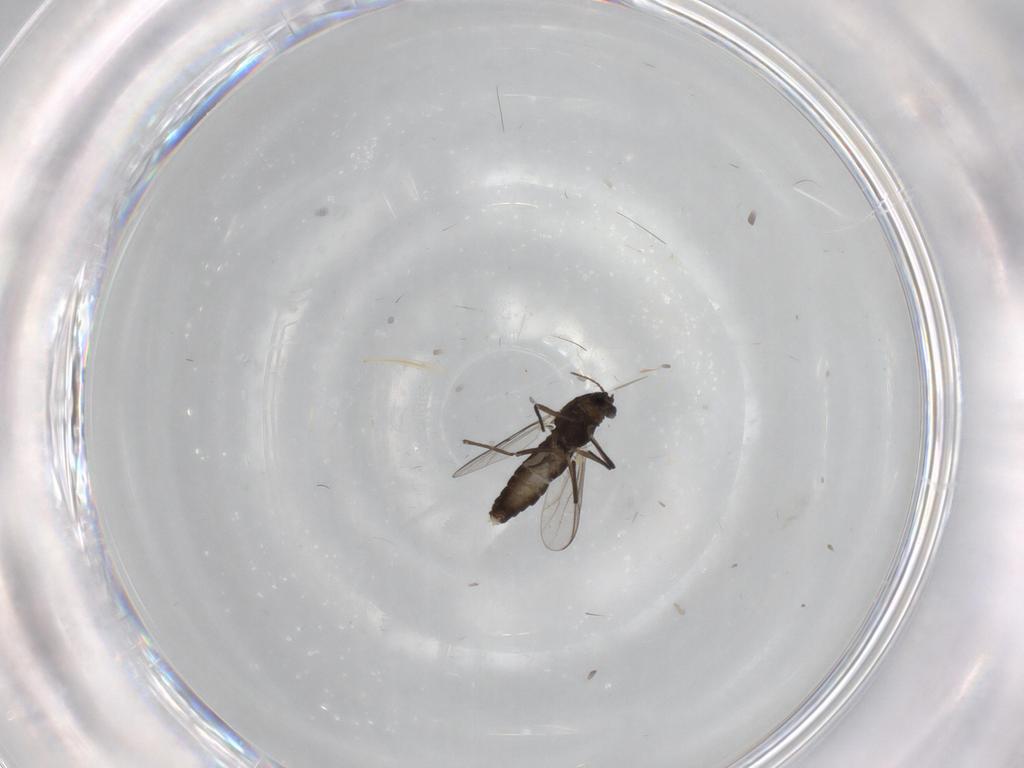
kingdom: Animalia
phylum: Arthropoda
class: Insecta
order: Diptera
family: Chironomidae
